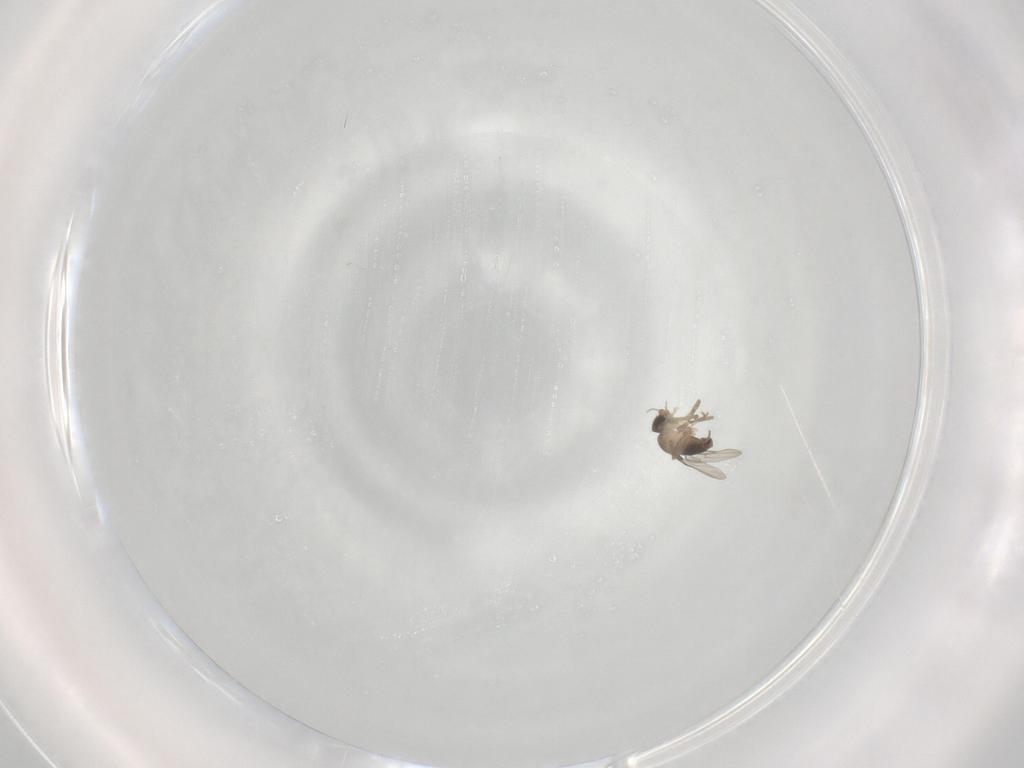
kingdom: Animalia
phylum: Arthropoda
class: Insecta
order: Diptera
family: Phoridae
